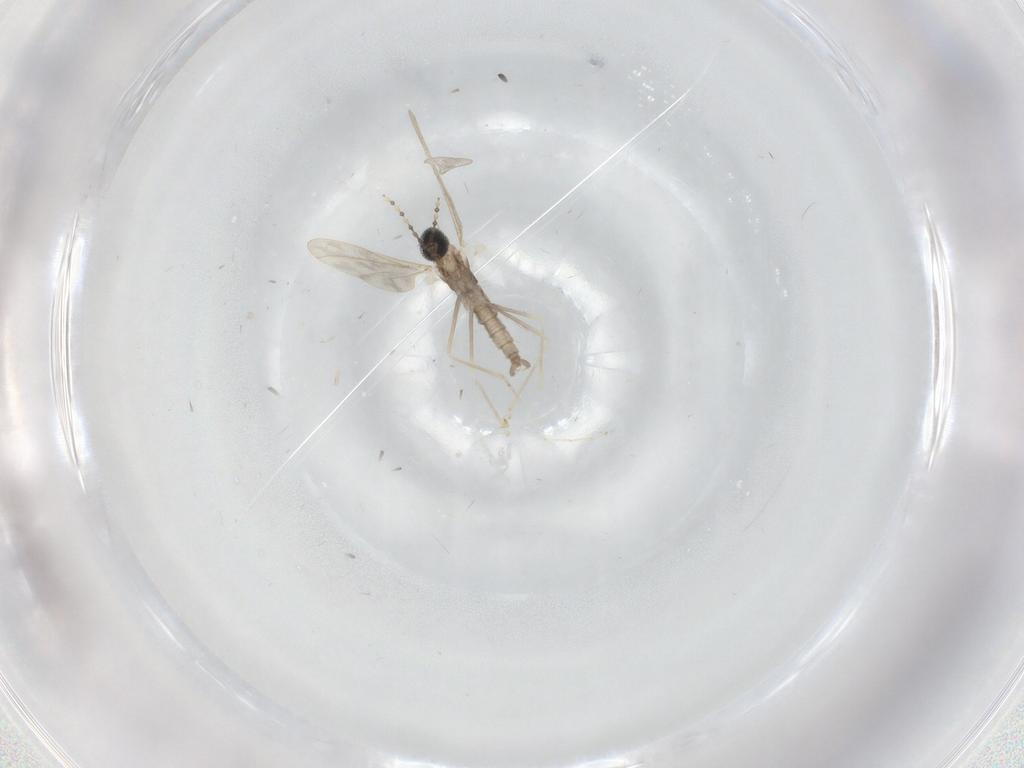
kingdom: Animalia
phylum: Arthropoda
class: Insecta
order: Diptera
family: Cecidomyiidae
